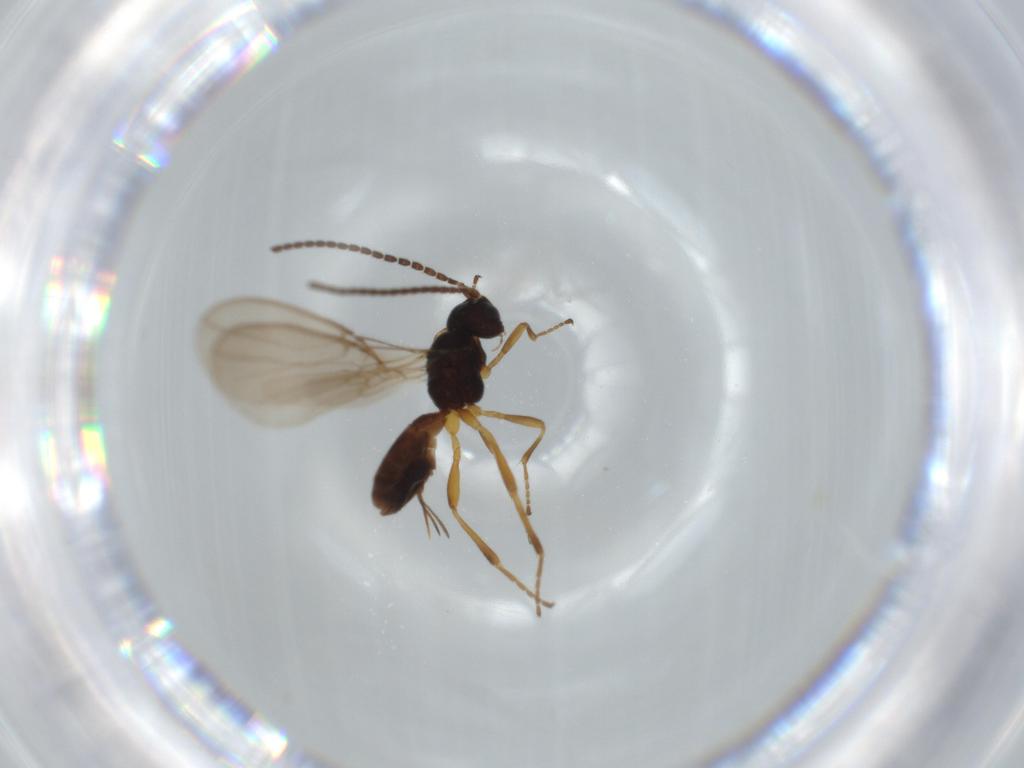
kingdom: Animalia
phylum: Arthropoda
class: Insecta
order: Hymenoptera
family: Braconidae
